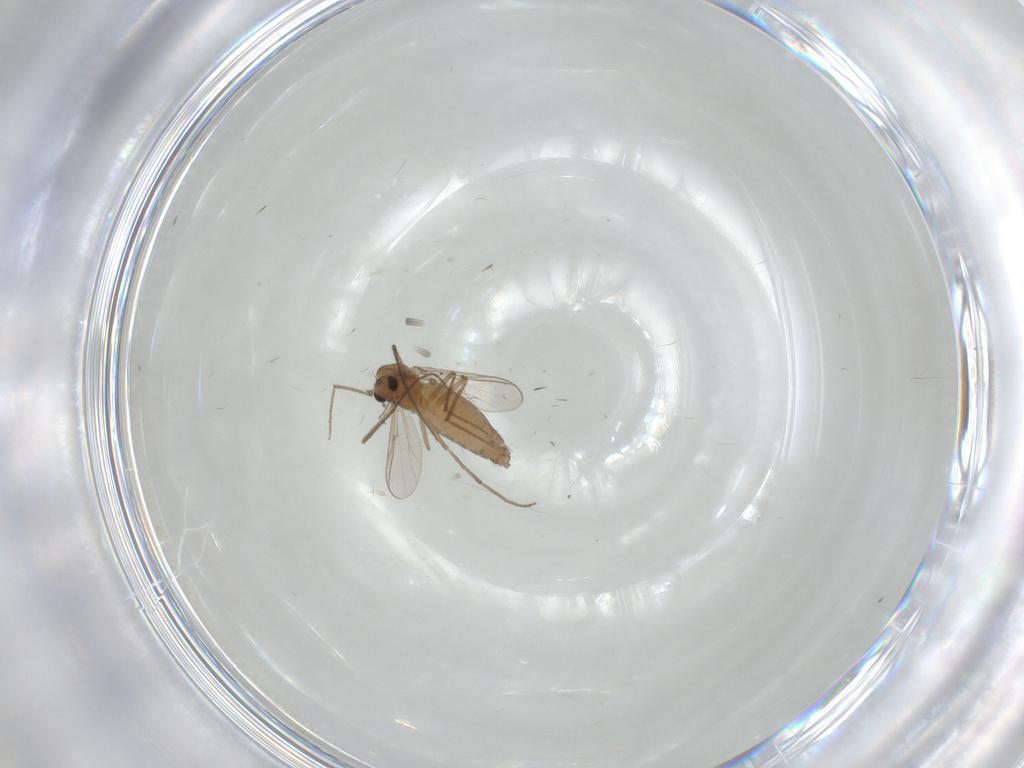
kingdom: Animalia
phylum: Arthropoda
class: Insecta
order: Diptera
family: Chironomidae
